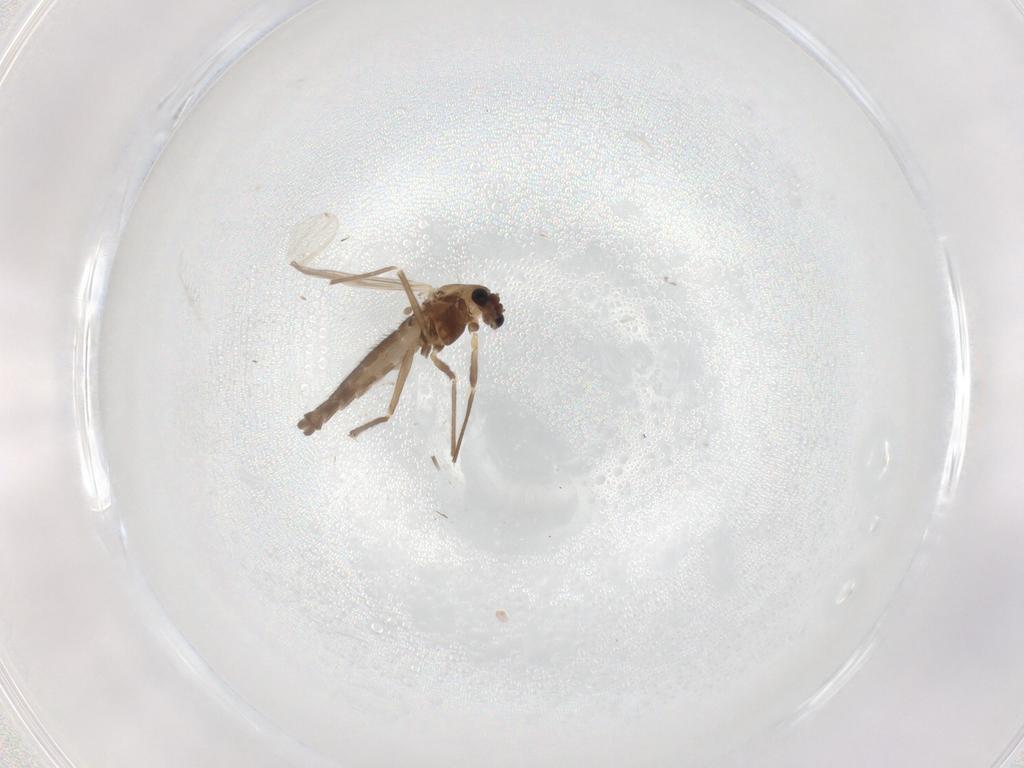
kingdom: Animalia
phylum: Arthropoda
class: Insecta
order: Diptera
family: Chironomidae
